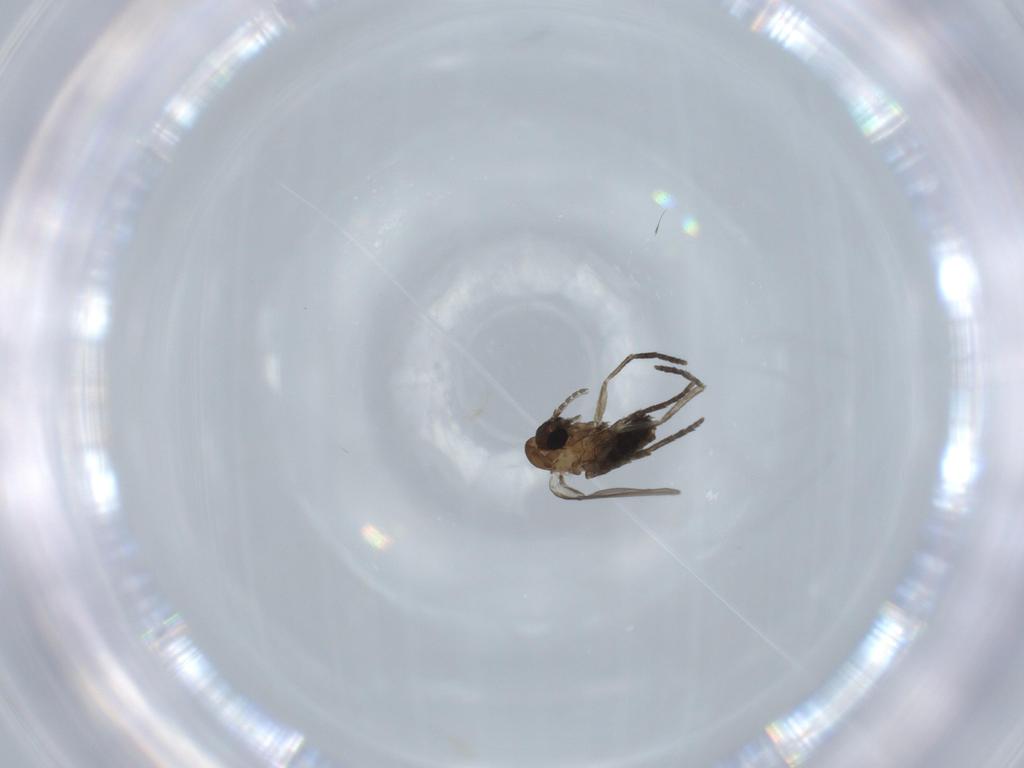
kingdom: Animalia
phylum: Arthropoda
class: Insecta
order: Diptera
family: Psychodidae
